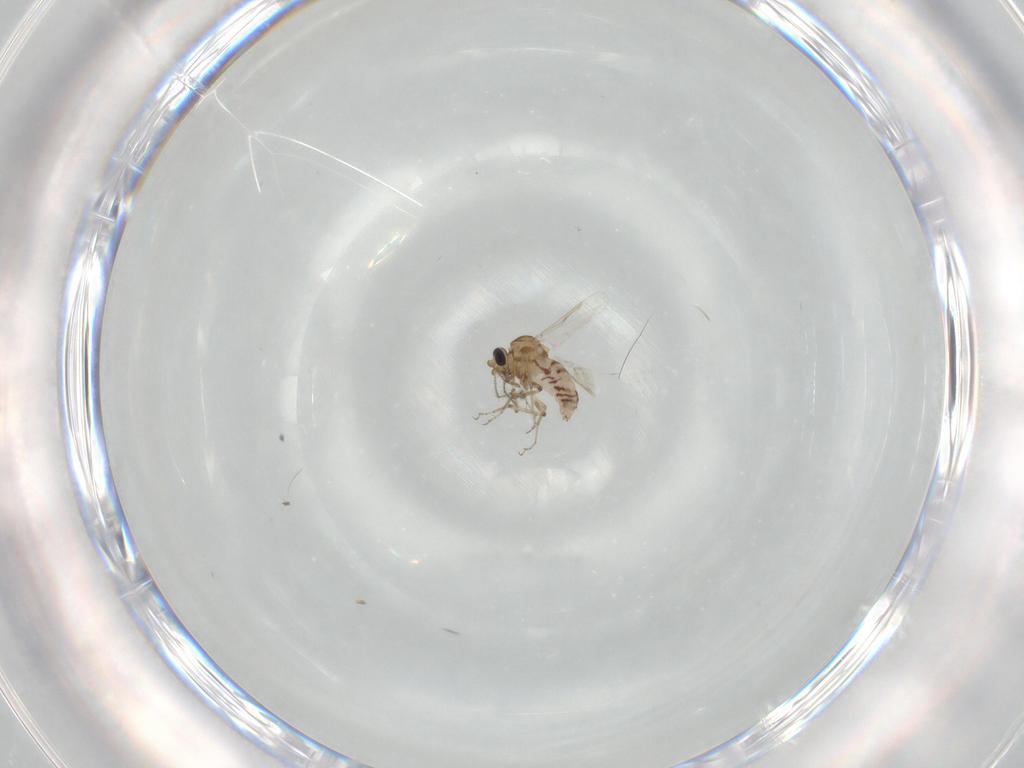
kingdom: Animalia
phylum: Arthropoda
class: Insecta
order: Diptera
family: Ceratopogonidae
